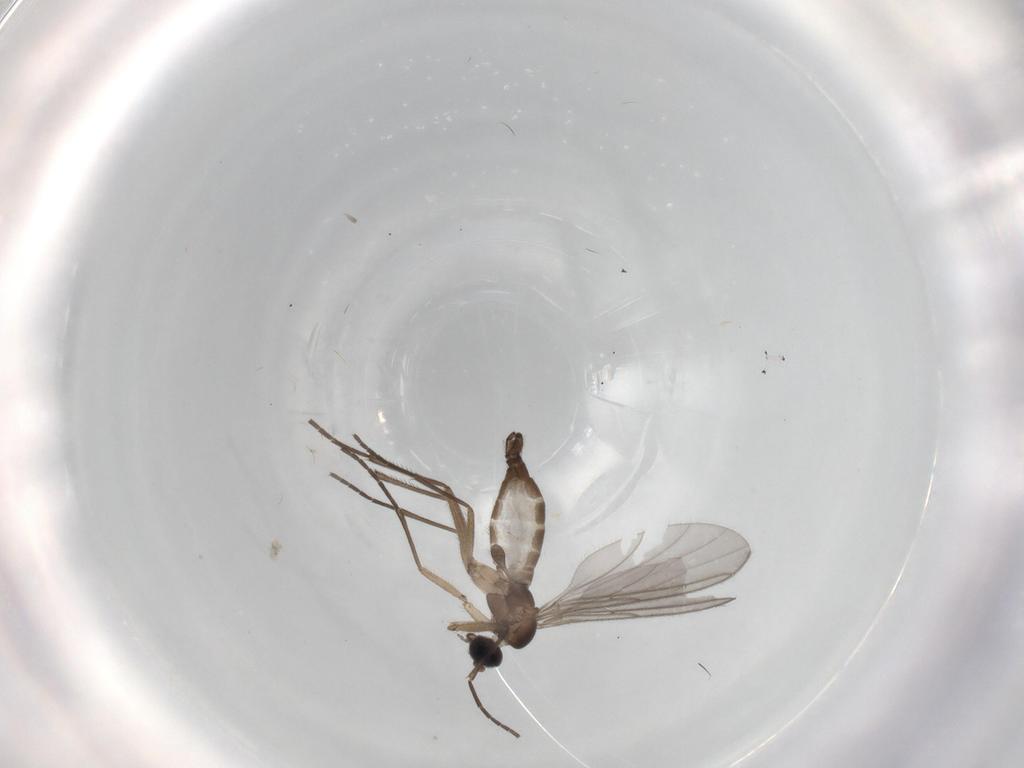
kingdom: Animalia
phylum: Arthropoda
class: Insecta
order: Diptera
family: Sciaridae
